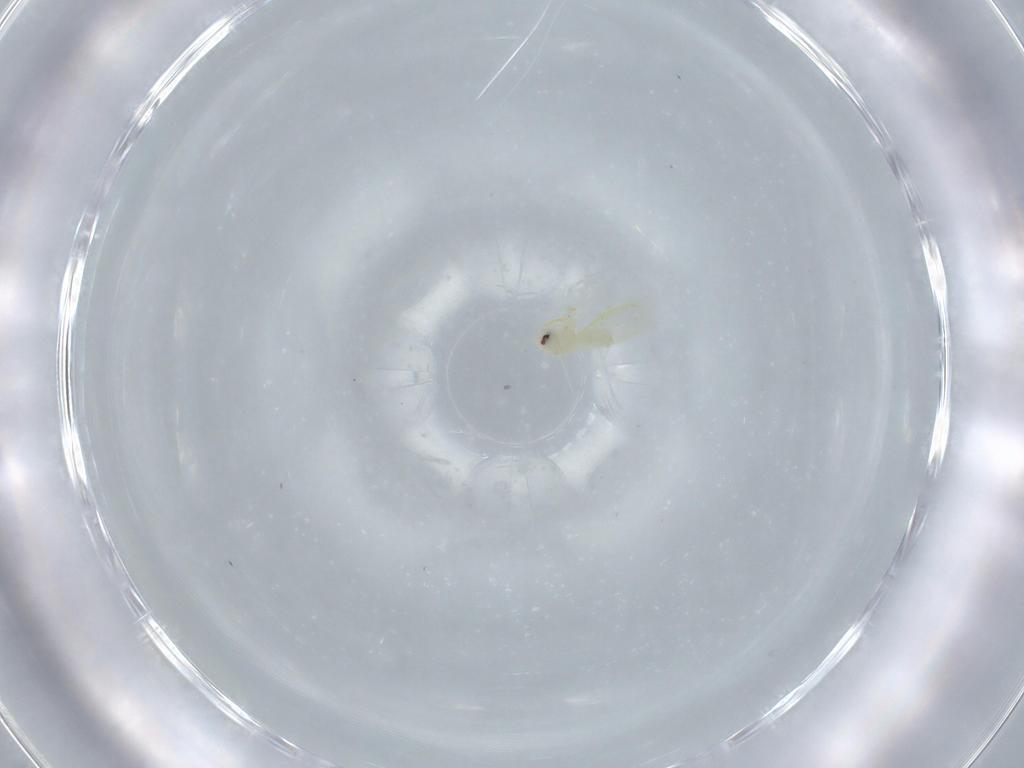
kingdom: Animalia
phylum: Arthropoda
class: Insecta
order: Hemiptera
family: Aleyrodidae
